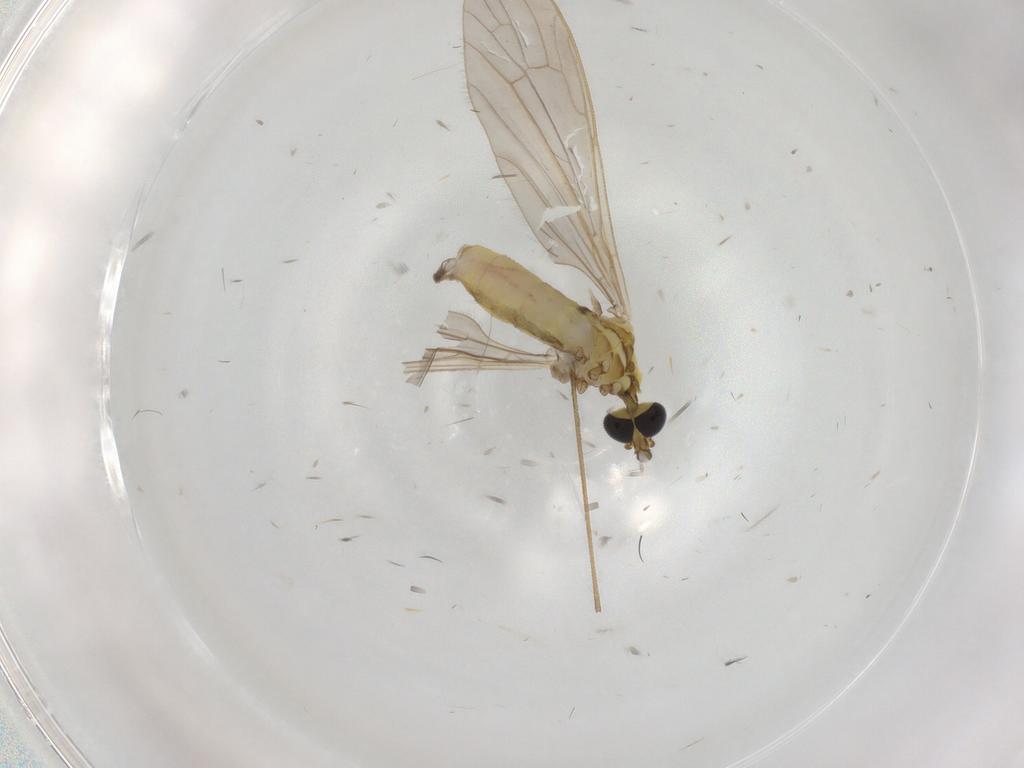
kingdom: Animalia
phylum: Arthropoda
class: Insecta
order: Diptera
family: Limoniidae
